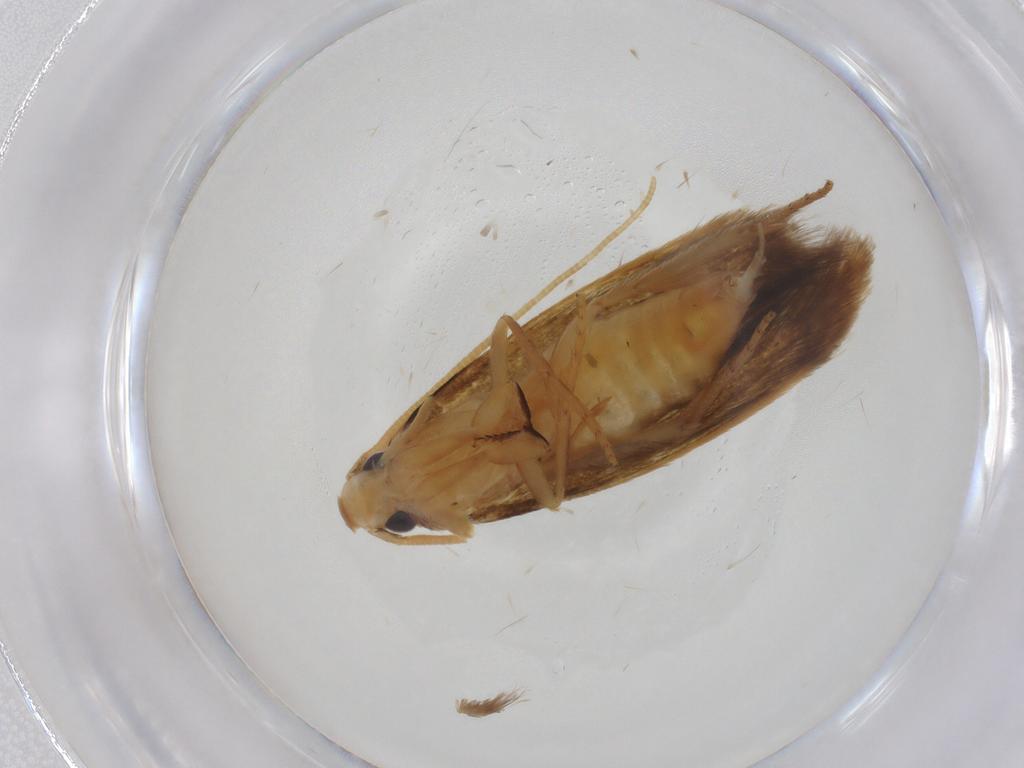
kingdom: Animalia
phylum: Arthropoda
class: Insecta
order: Lepidoptera
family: Tineidae
